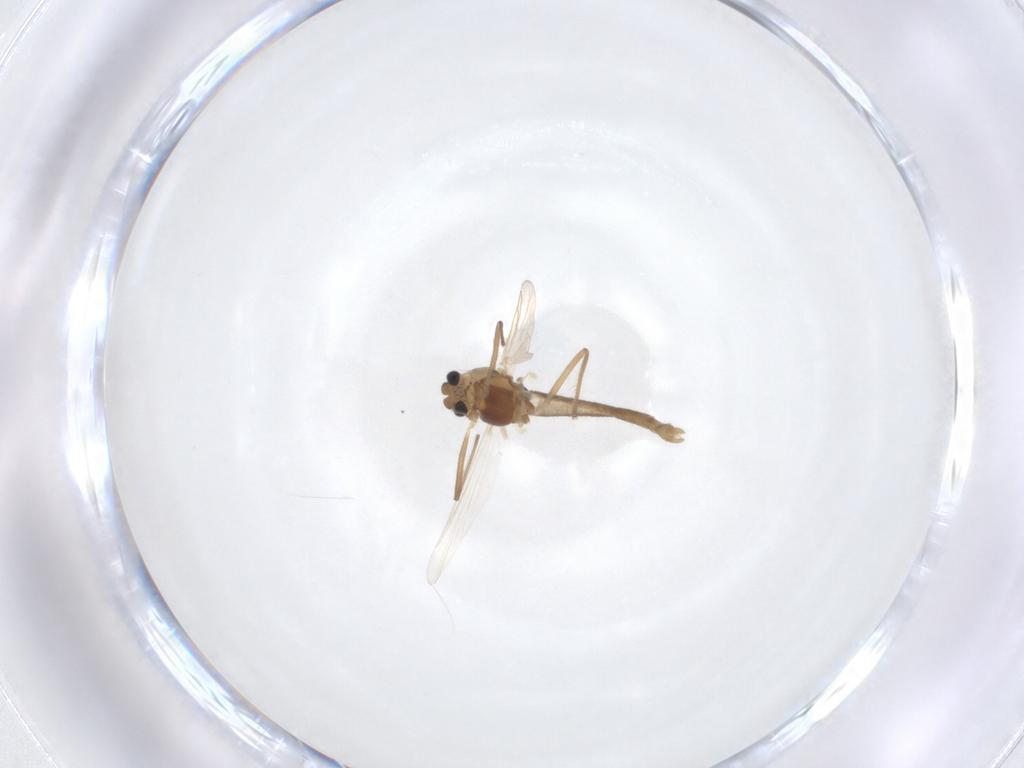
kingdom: Animalia
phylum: Arthropoda
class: Insecta
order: Diptera
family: Chironomidae
